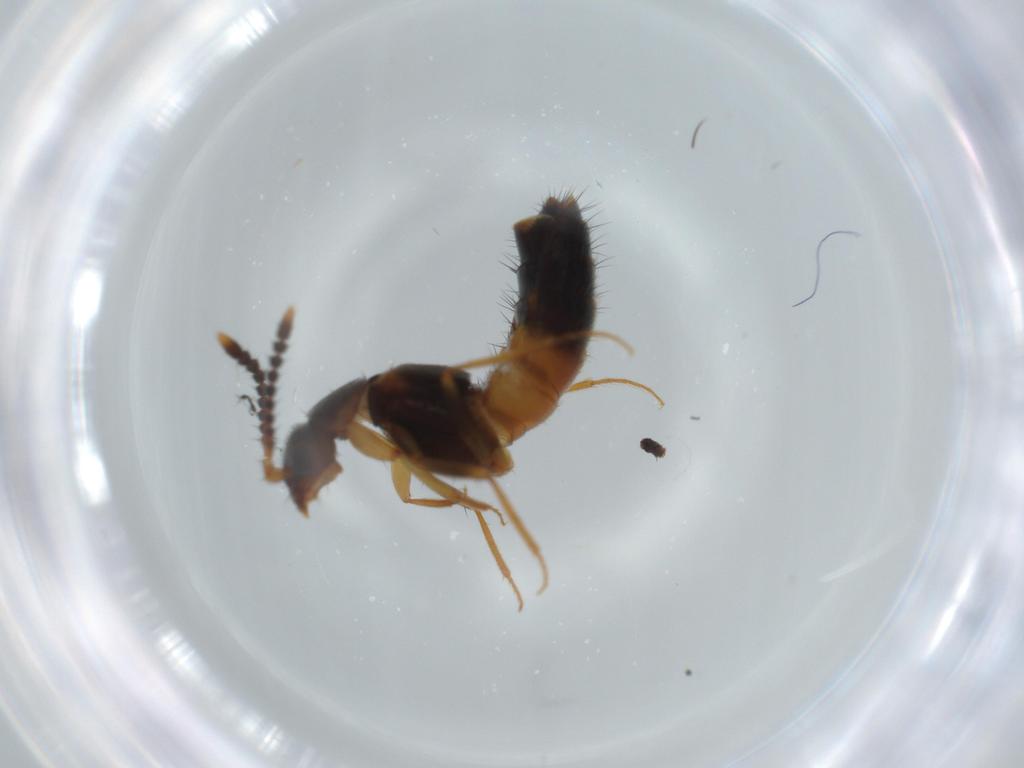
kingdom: Animalia
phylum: Arthropoda
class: Insecta
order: Coleoptera
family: Staphylinidae
